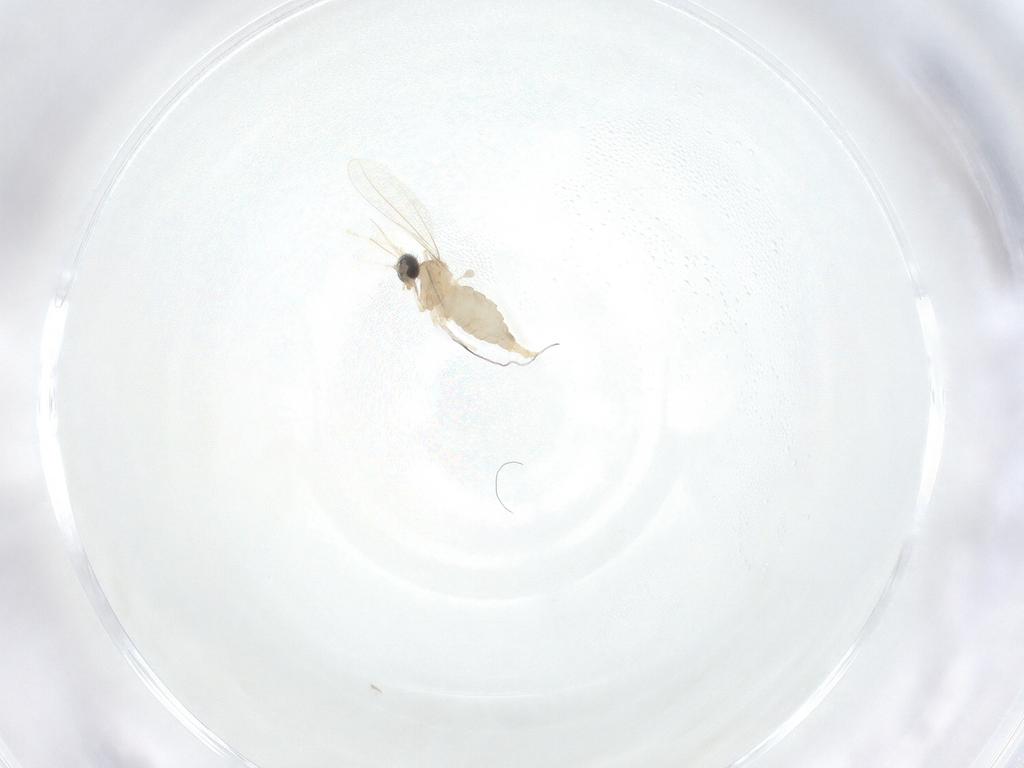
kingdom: Animalia
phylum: Arthropoda
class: Insecta
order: Diptera
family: Cecidomyiidae
